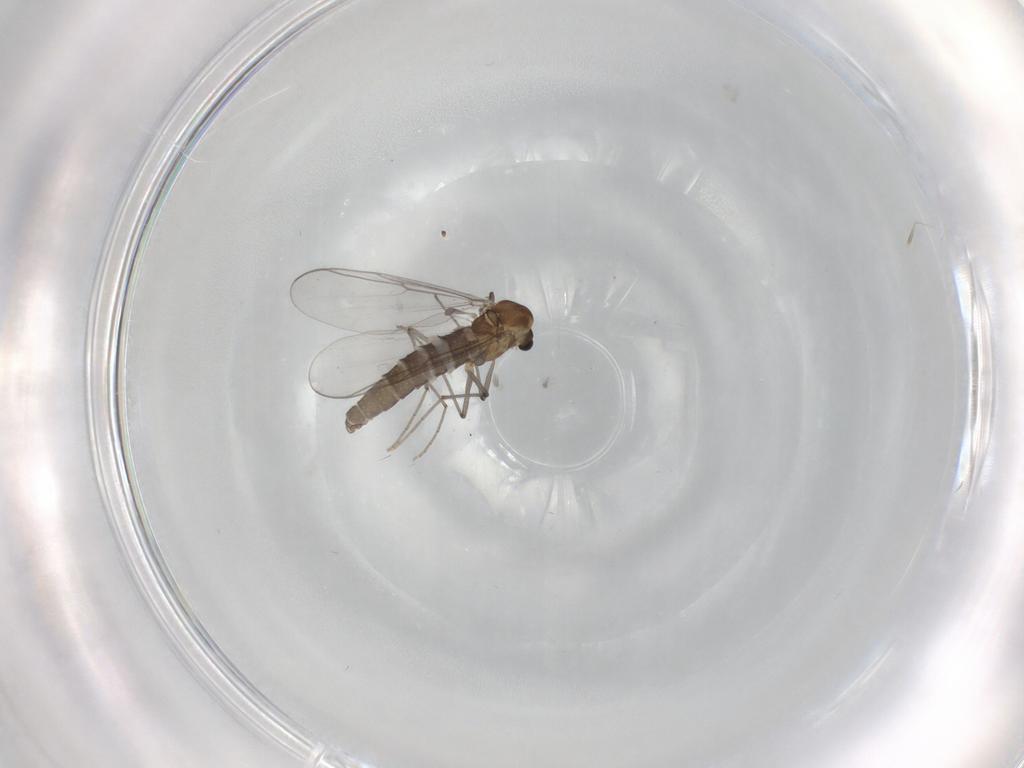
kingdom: Animalia
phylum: Arthropoda
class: Insecta
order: Diptera
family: Chironomidae
